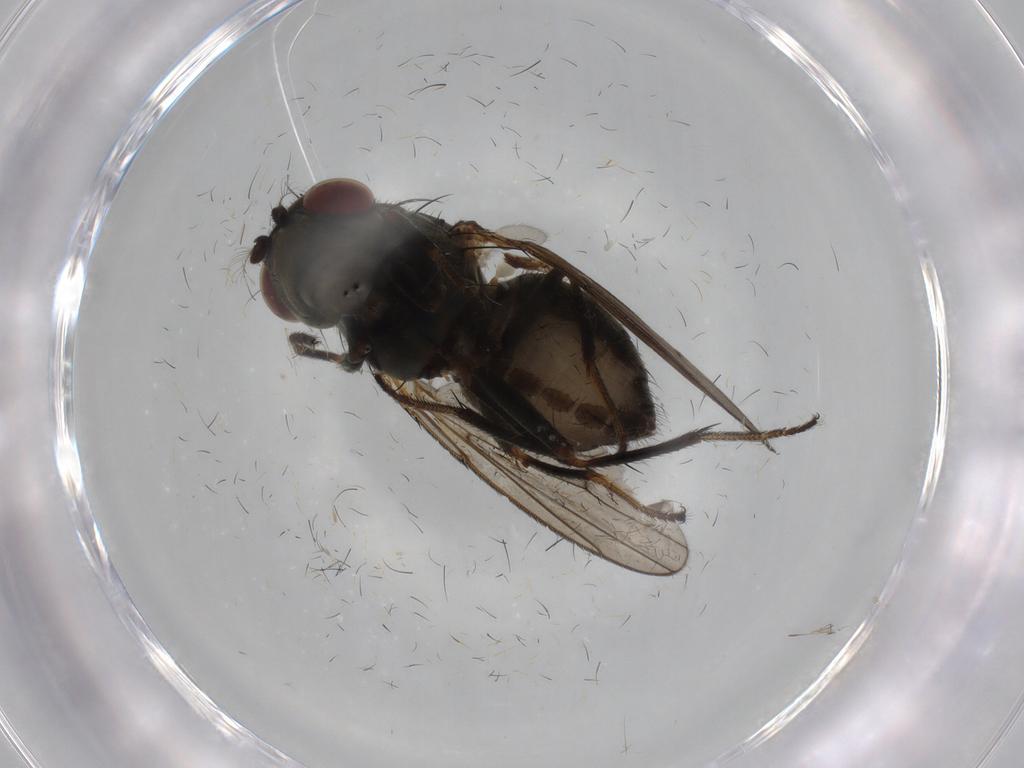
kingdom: Animalia
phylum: Arthropoda
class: Insecta
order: Diptera
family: Ephydridae
